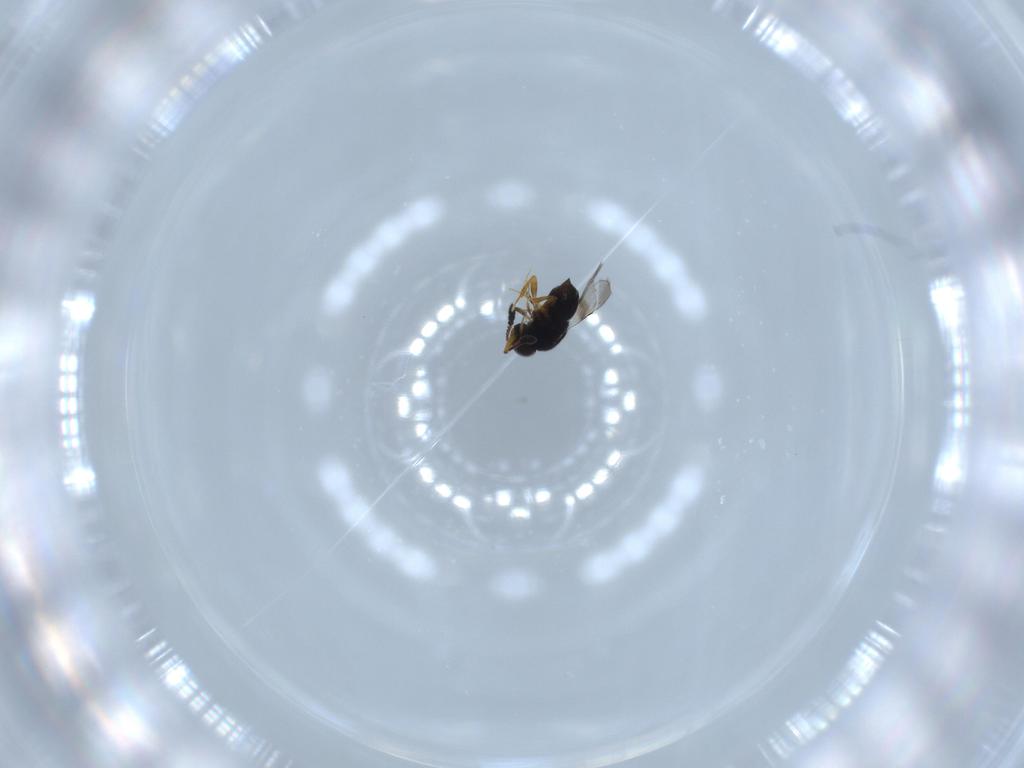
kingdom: Animalia
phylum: Arthropoda
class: Insecta
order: Hymenoptera
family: Ceraphronidae
